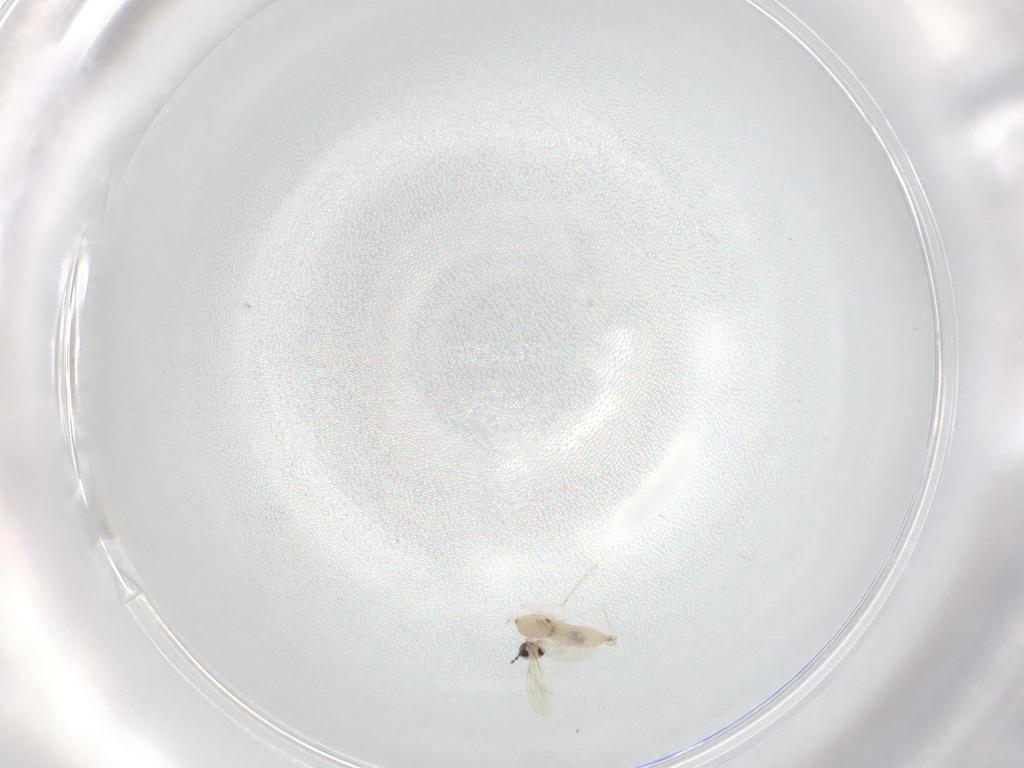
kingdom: Animalia
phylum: Arthropoda
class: Insecta
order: Diptera
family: Cecidomyiidae
